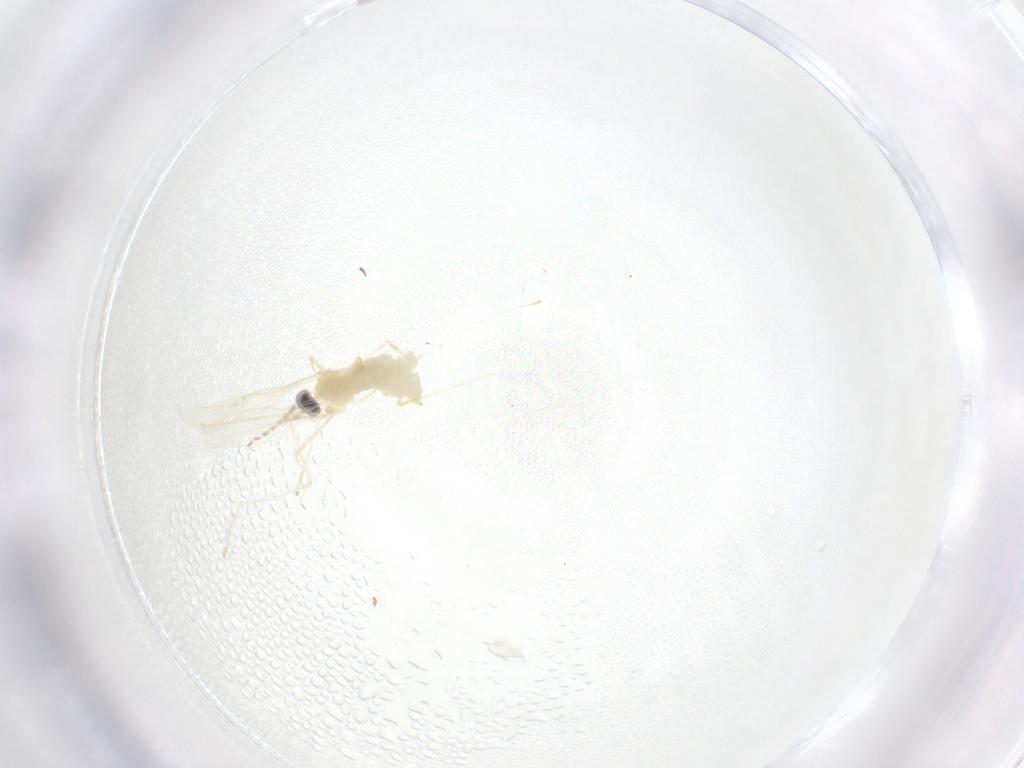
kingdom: Animalia
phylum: Arthropoda
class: Insecta
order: Diptera
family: Cecidomyiidae
